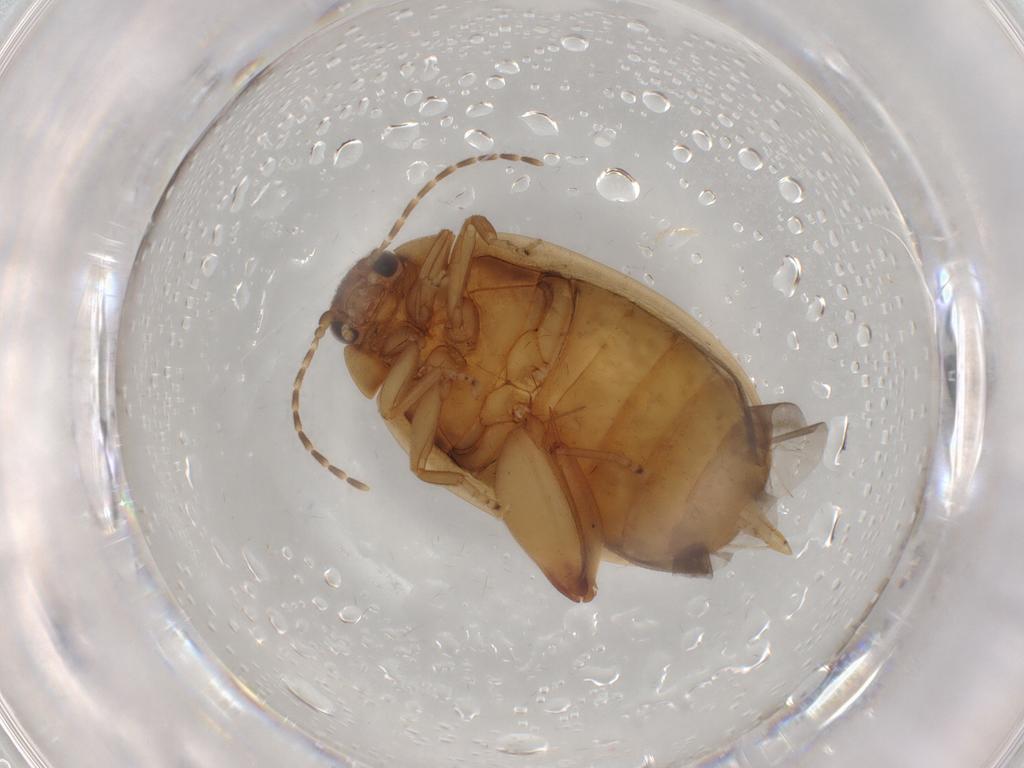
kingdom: Animalia
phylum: Arthropoda
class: Insecta
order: Coleoptera
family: Scirtidae
